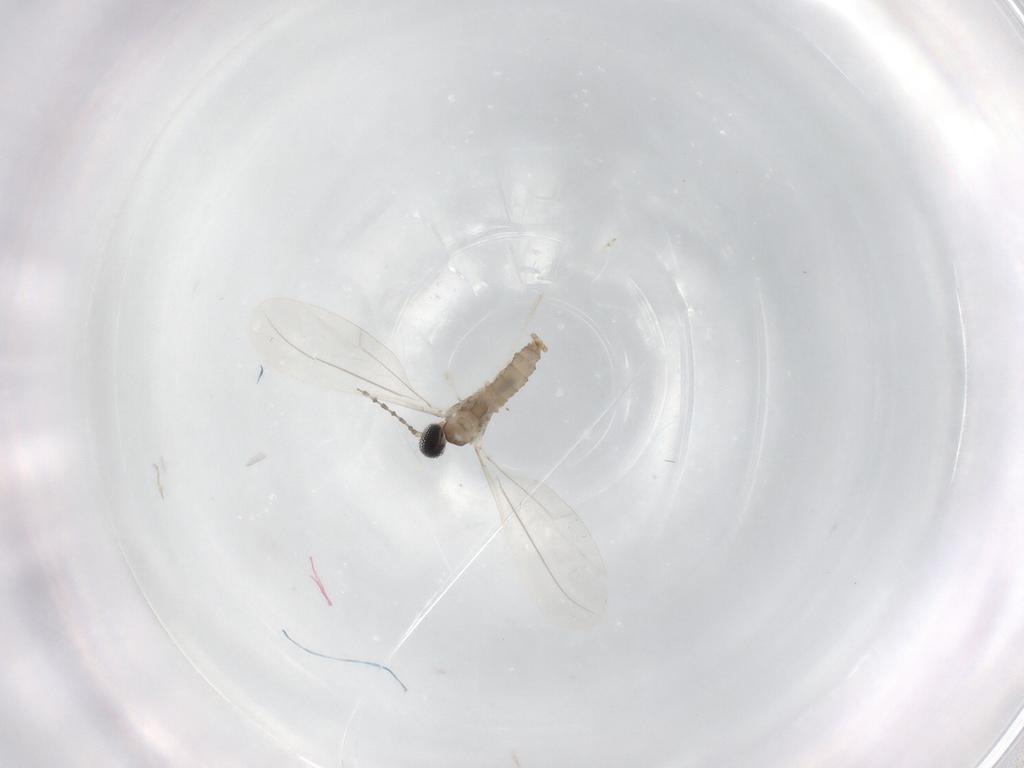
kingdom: Animalia
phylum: Arthropoda
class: Insecta
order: Diptera
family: Cecidomyiidae
